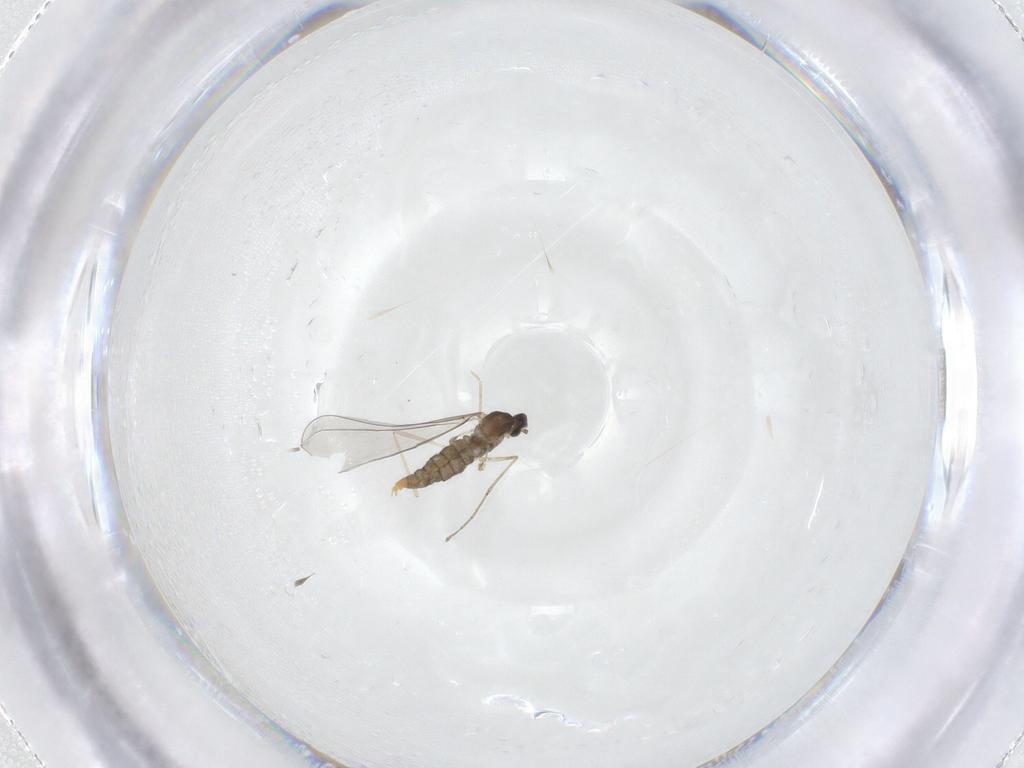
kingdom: Animalia
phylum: Arthropoda
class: Insecta
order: Diptera
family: Cecidomyiidae
